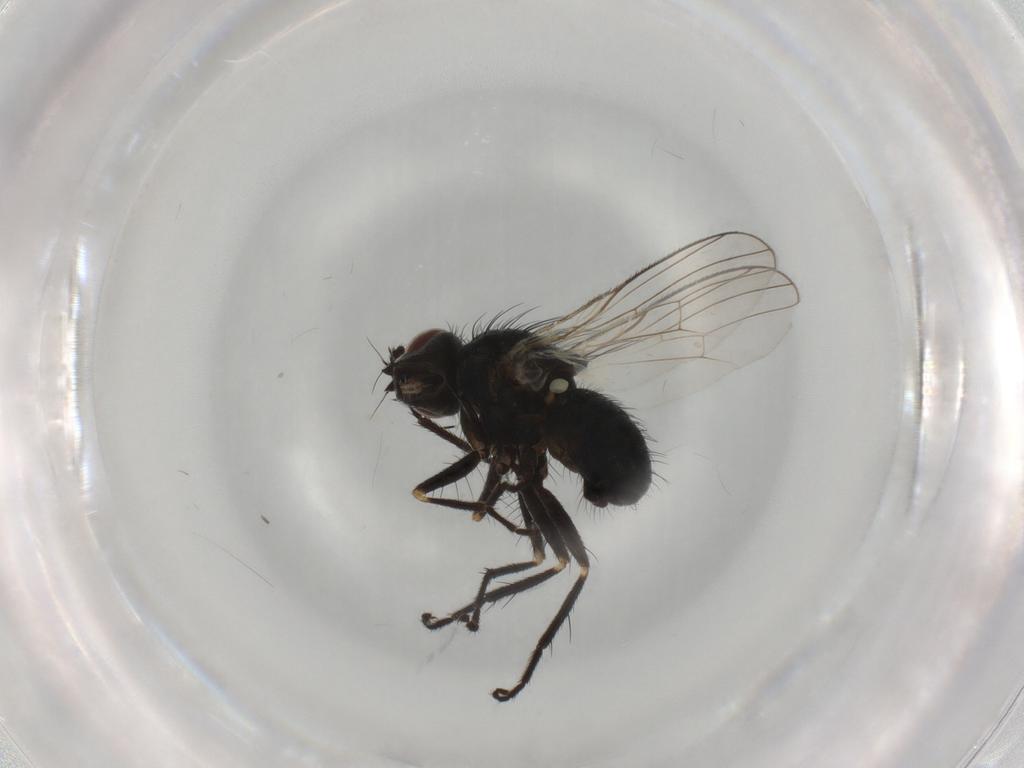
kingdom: Animalia
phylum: Arthropoda
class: Insecta
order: Diptera
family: Muscidae
